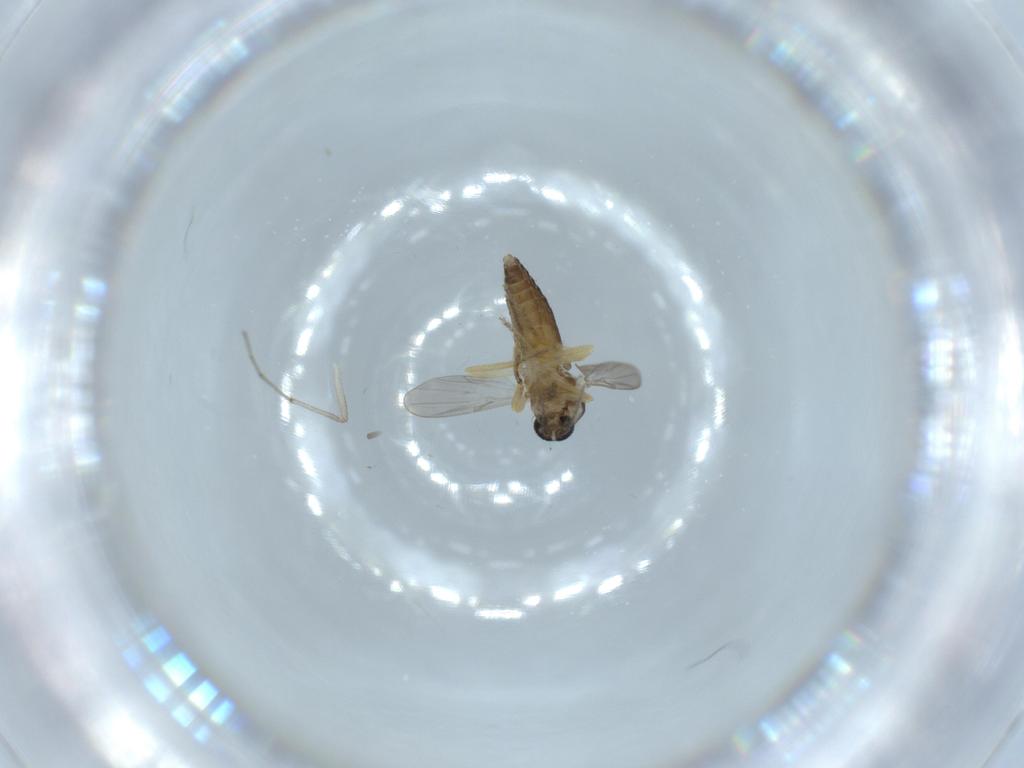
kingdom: Animalia
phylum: Arthropoda
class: Insecta
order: Diptera
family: Ceratopogonidae
